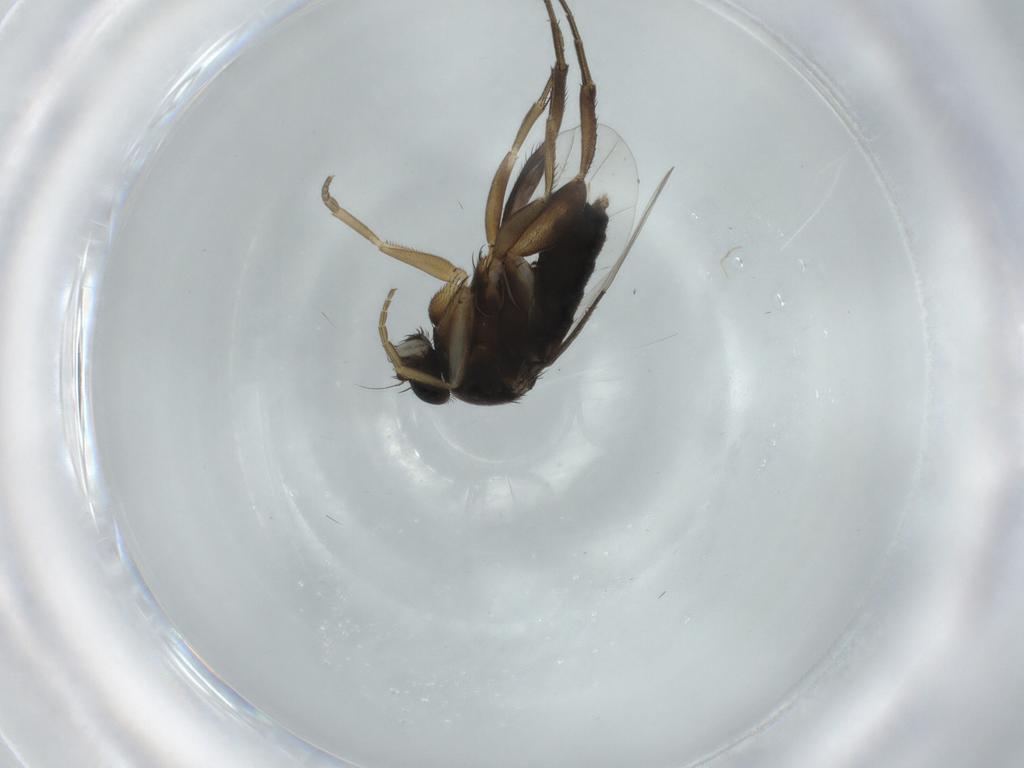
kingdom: Animalia
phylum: Arthropoda
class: Insecta
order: Diptera
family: Phoridae
